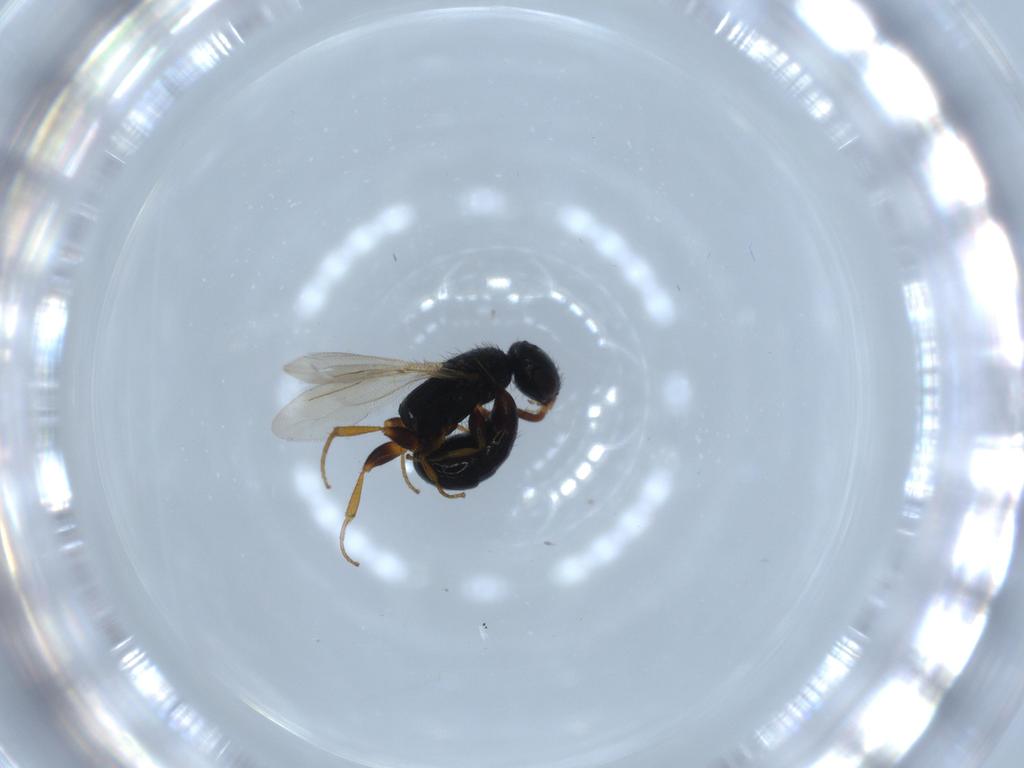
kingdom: Animalia
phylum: Arthropoda
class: Insecta
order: Hymenoptera
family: Bethylidae
